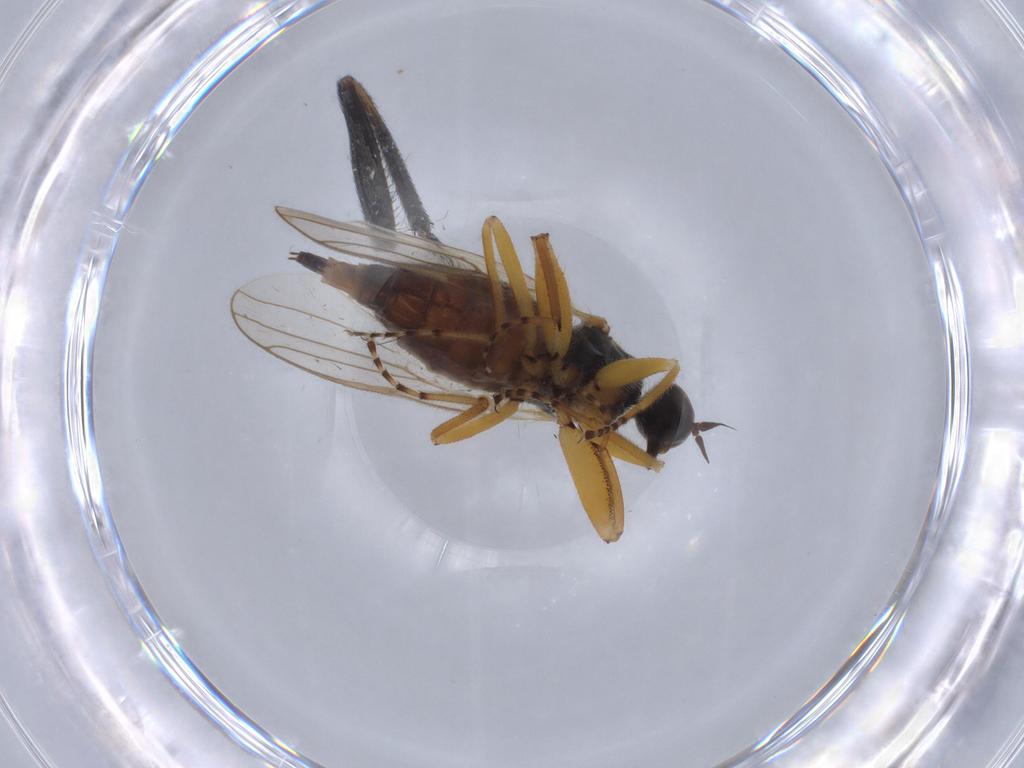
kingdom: Animalia
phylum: Arthropoda
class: Insecta
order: Diptera
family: Hybotidae
